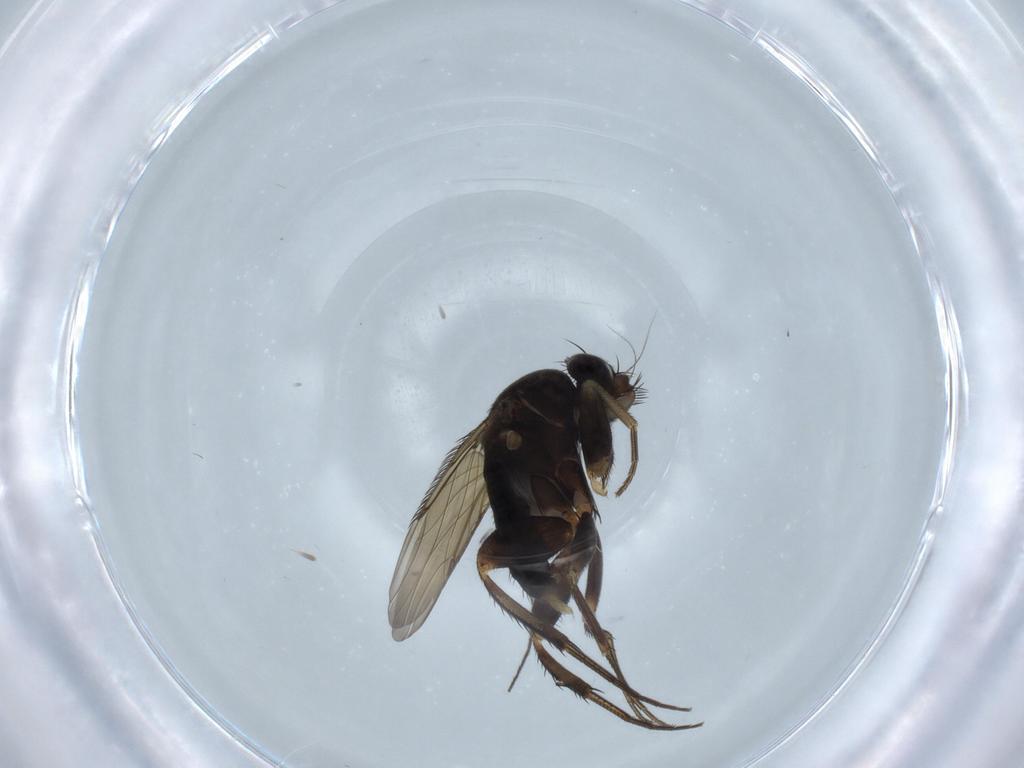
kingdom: Animalia
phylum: Arthropoda
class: Insecta
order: Diptera
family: Phoridae
